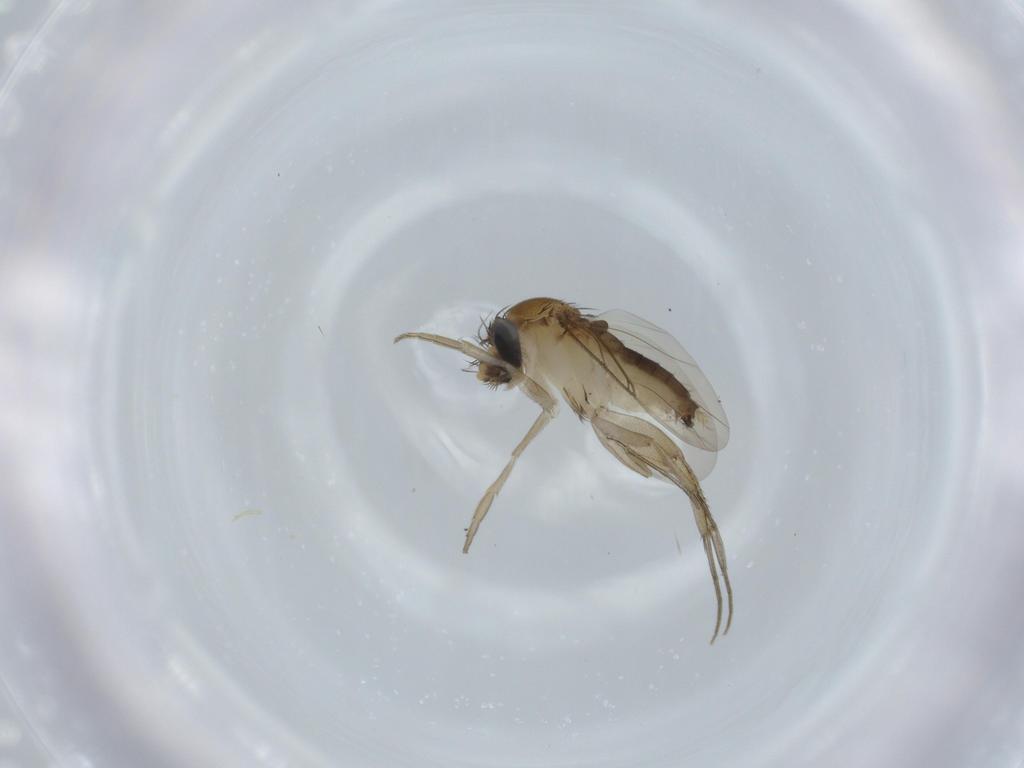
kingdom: Animalia
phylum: Arthropoda
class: Insecta
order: Diptera
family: Phoridae
